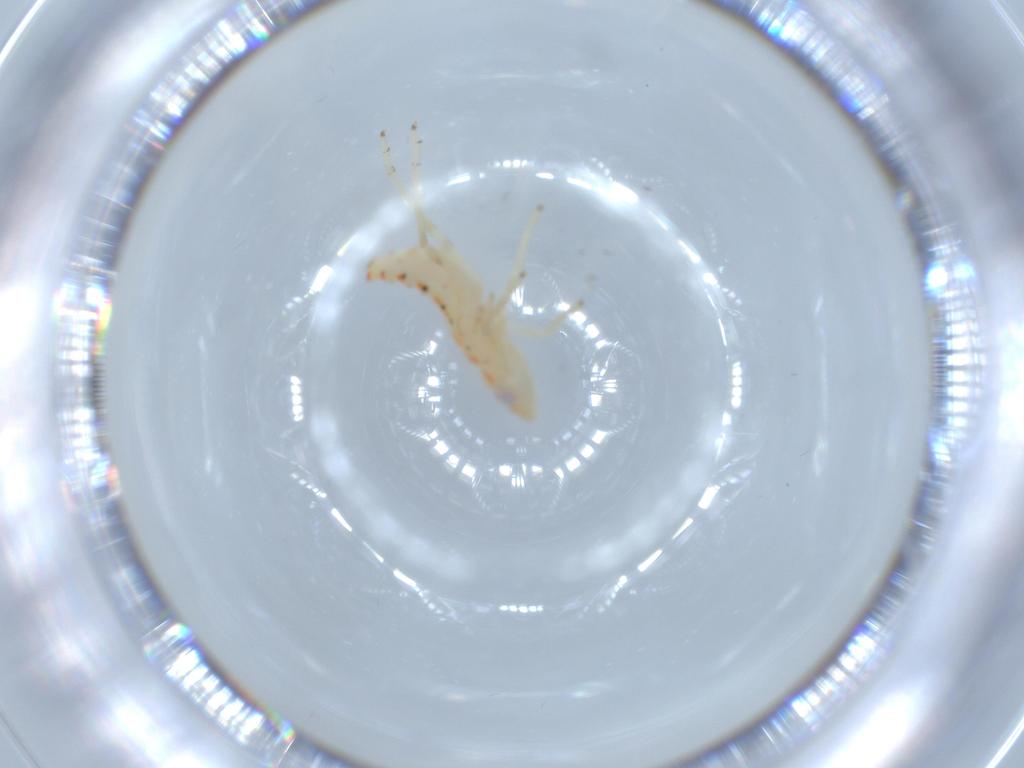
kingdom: Animalia
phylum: Arthropoda
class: Insecta
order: Hemiptera
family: Tropiduchidae
